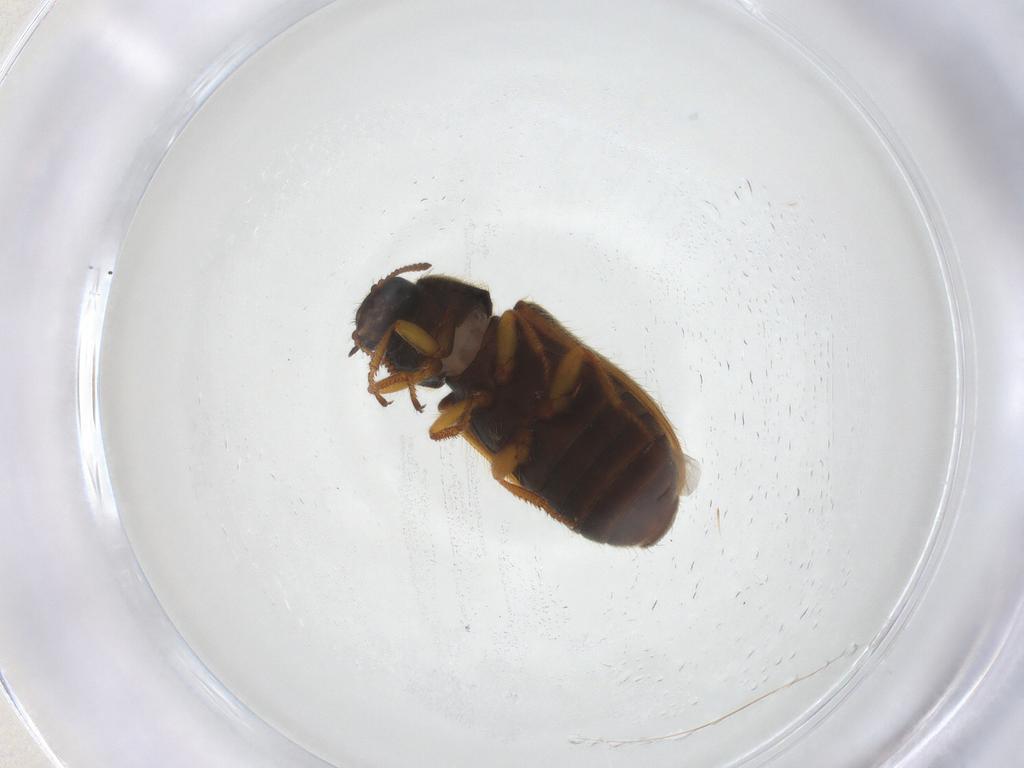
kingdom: Animalia
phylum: Arthropoda
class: Insecta
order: Coleoptera
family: Melyridae
